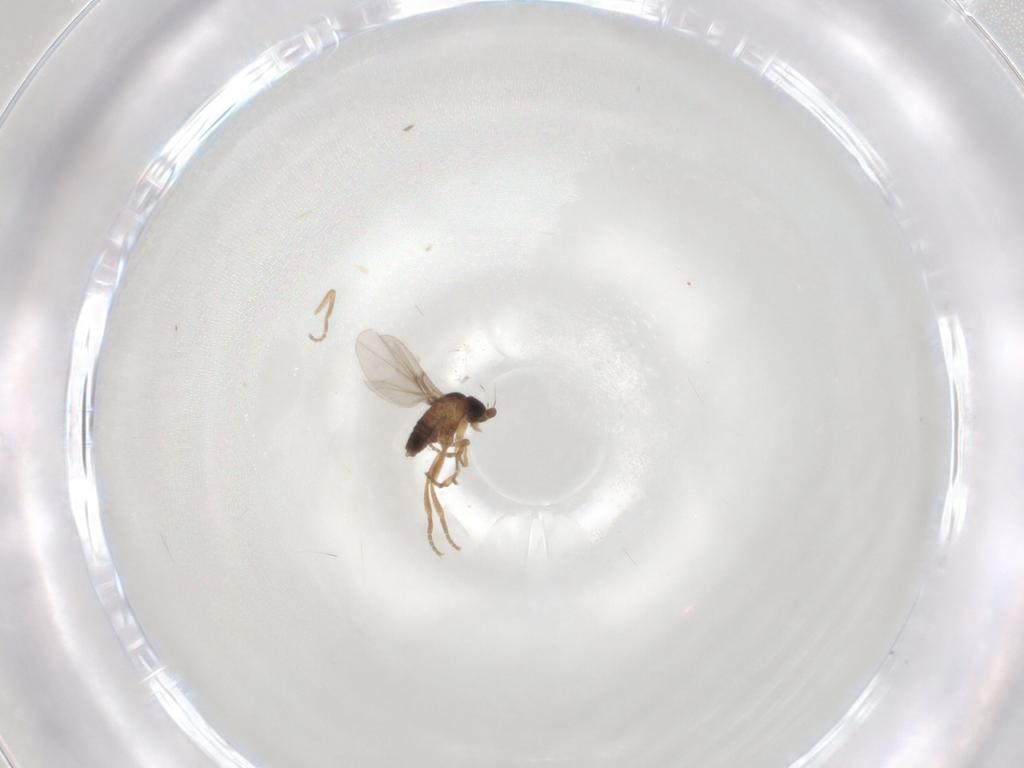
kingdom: Animalia
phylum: Arthropoda
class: Insecta
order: Diptera
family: Phoridae
